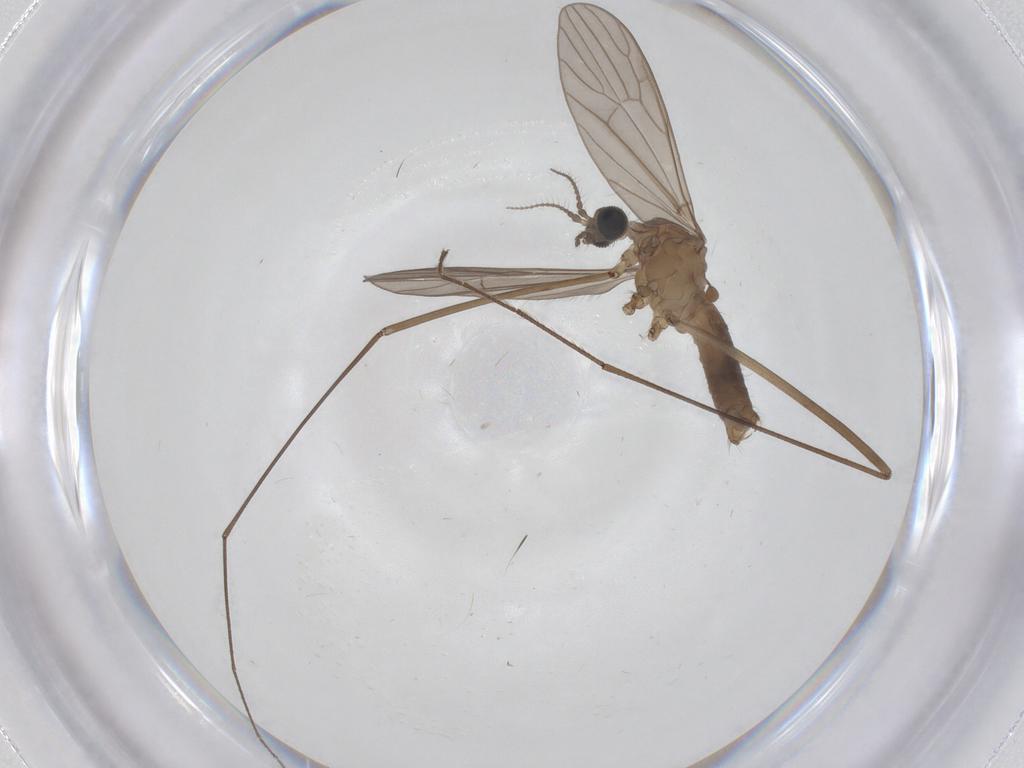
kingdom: Animalia
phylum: Arthropoda
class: Insecta
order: Diptera
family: Limoniidae
